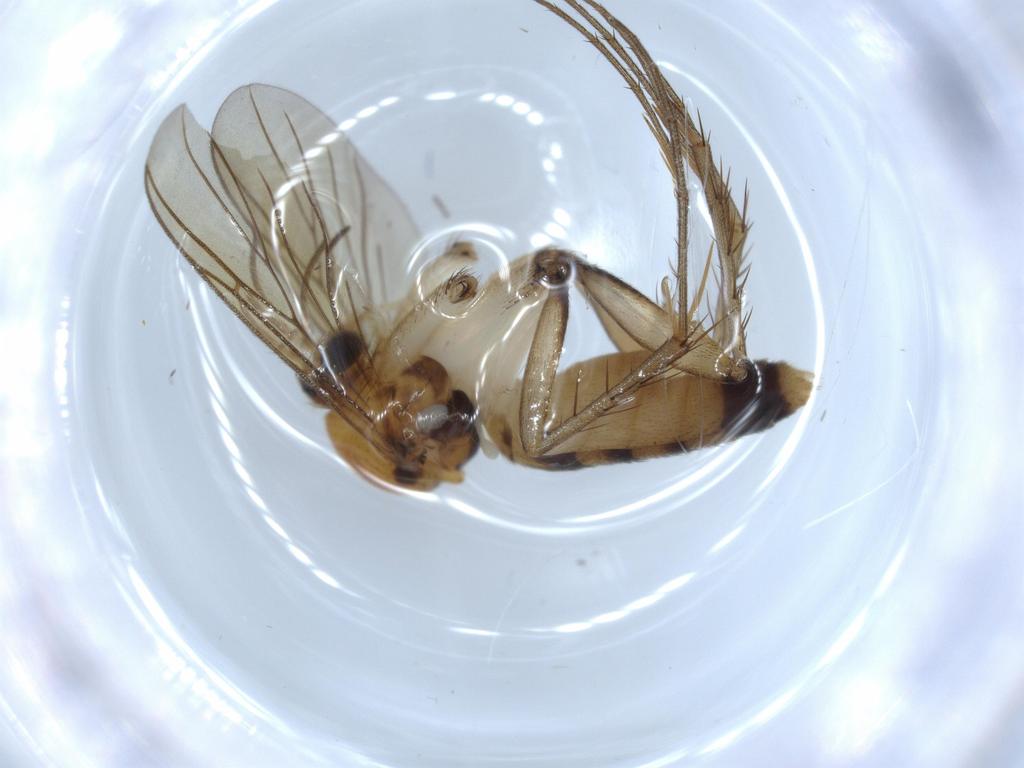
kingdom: Animalia
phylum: Arthropoda
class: Insecta
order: Diptera
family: Mycetophilidae
